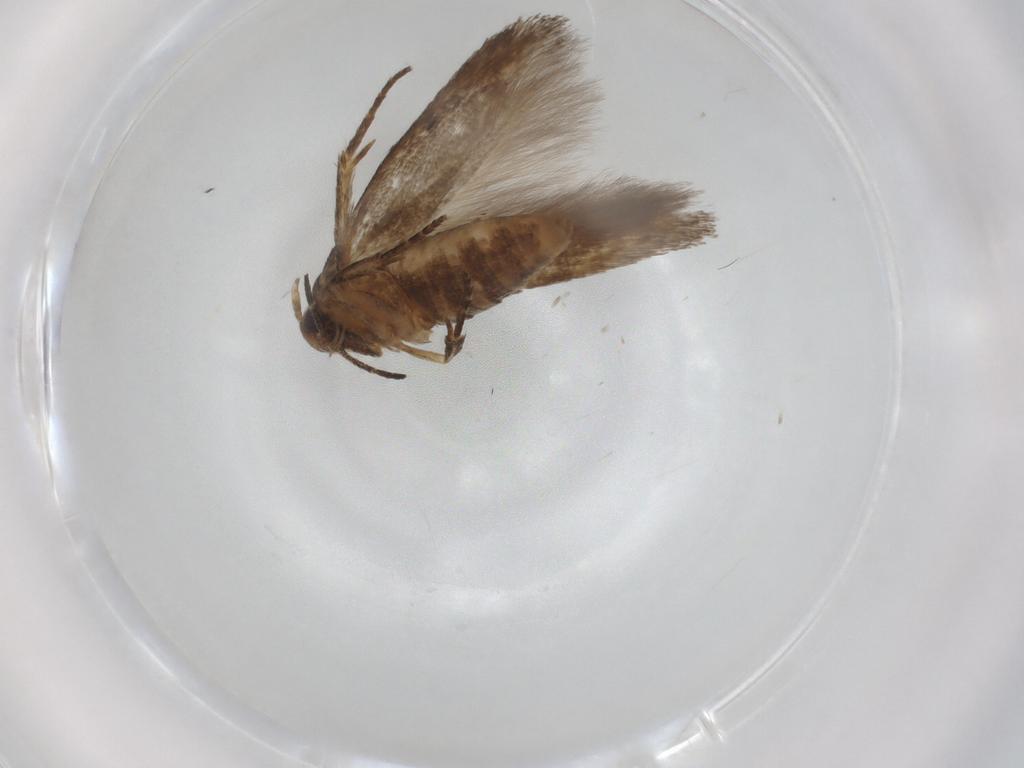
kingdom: Animalia
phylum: Arthropoda
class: Insecta
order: Lepidoptera
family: Cosmopterigidae
